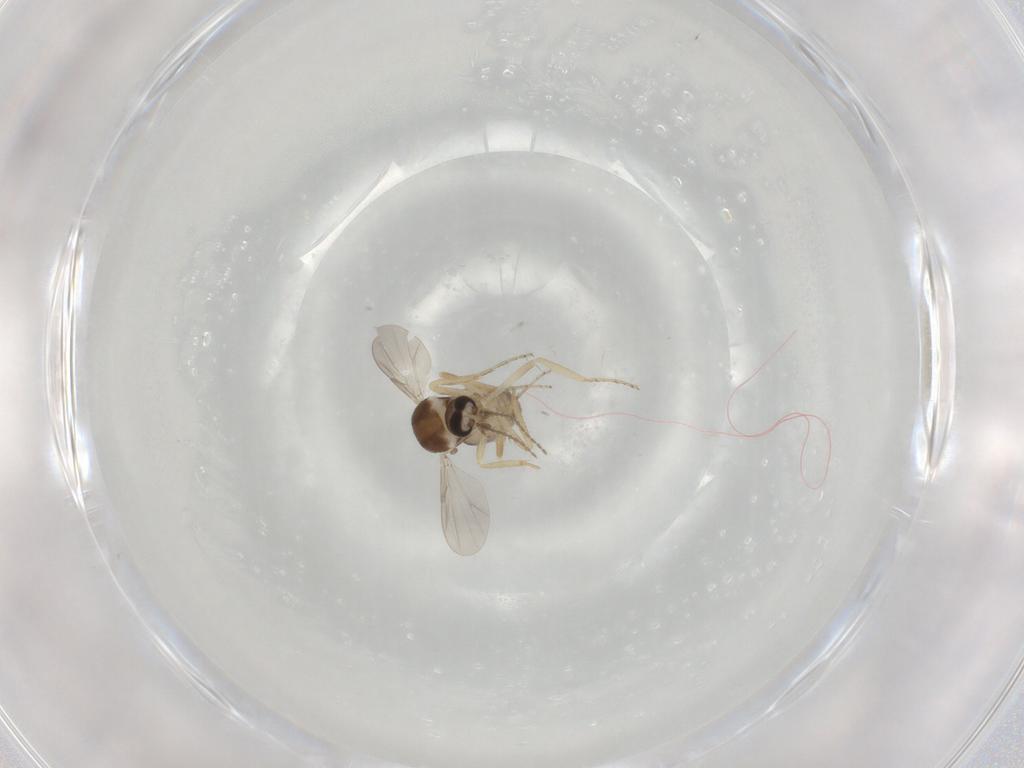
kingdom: Animalia
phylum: Arthropoda
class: Insecta
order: Diptera
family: Ceratopogonidae
